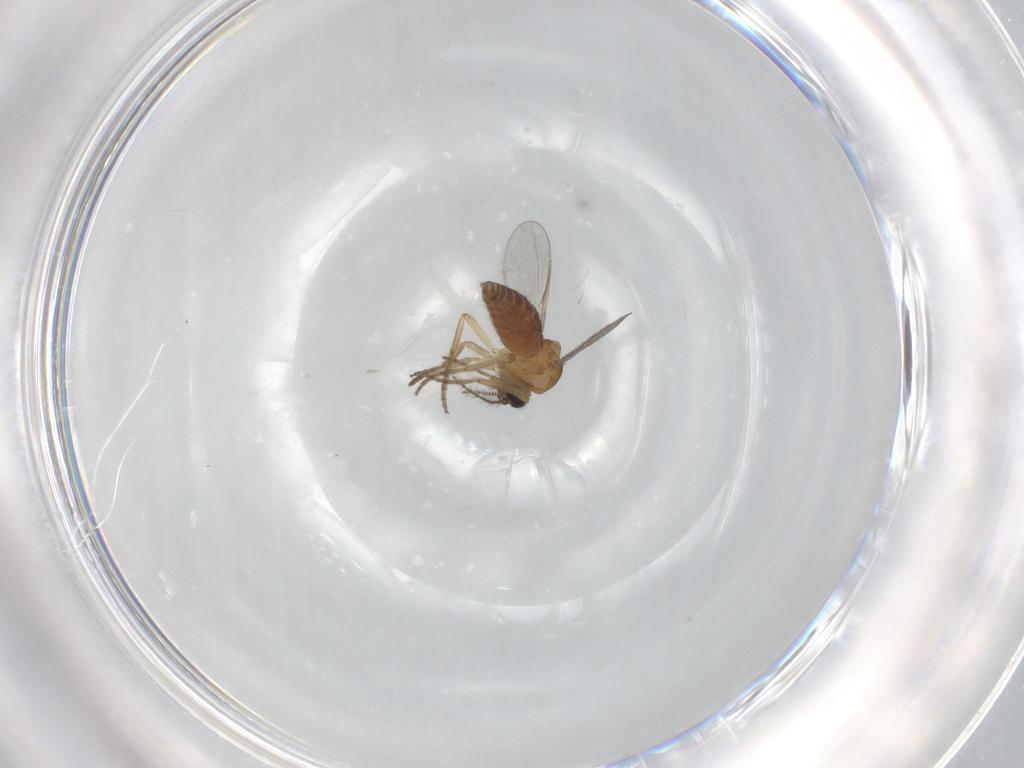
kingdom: Animalia
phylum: Arthropoda
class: Insecta
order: Diptera
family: Ceratopogonidae
